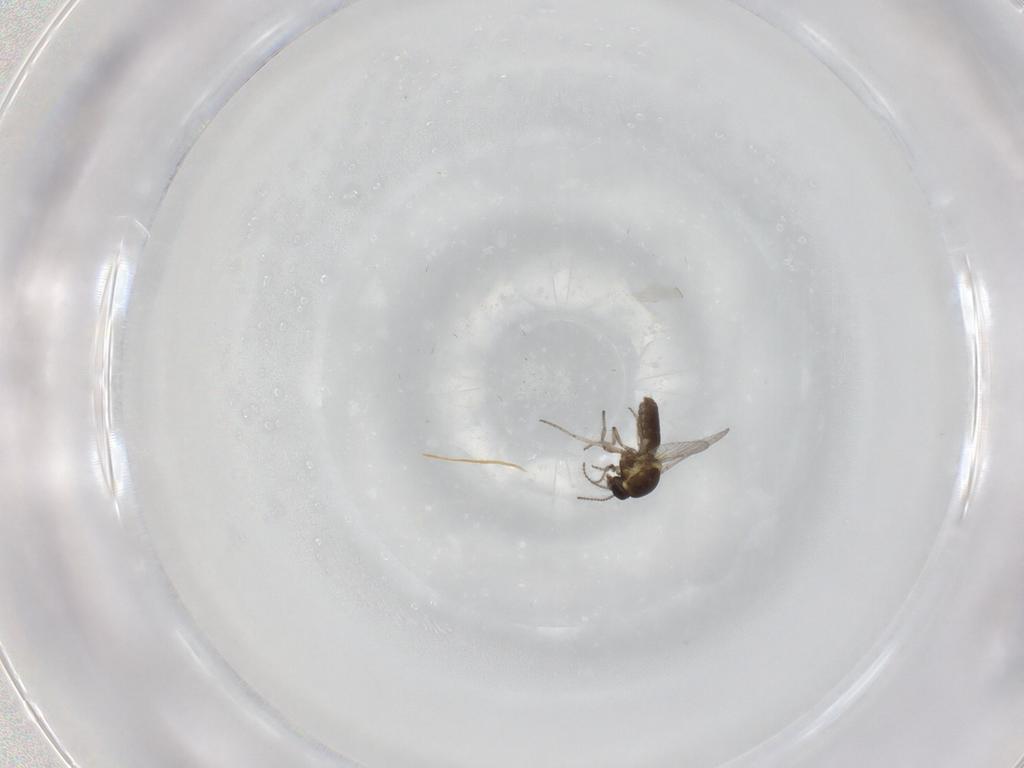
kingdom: Animalia
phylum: Arthropoda
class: Insecta
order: Diptera
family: Ceratopogonidae
